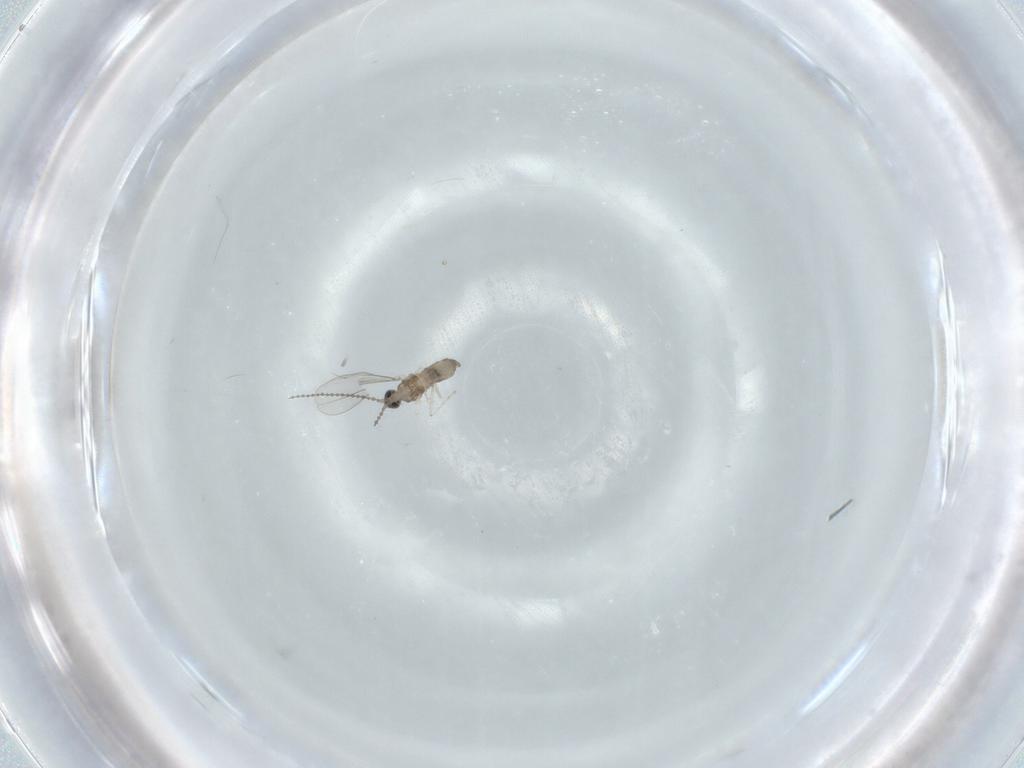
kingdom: Animalia
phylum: Arthropoda
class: Insecta
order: Diptera
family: Cecidomyiidae
